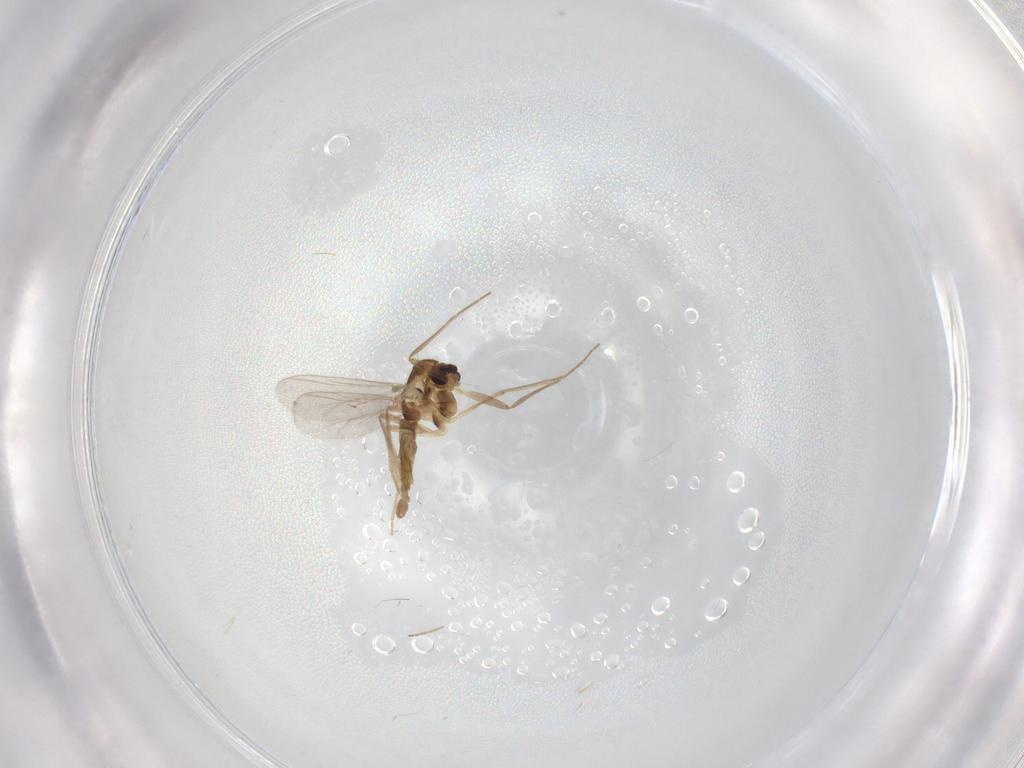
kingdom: Animalia
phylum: Arthropoda
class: Insecta
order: Diptera
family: Chironomidae
